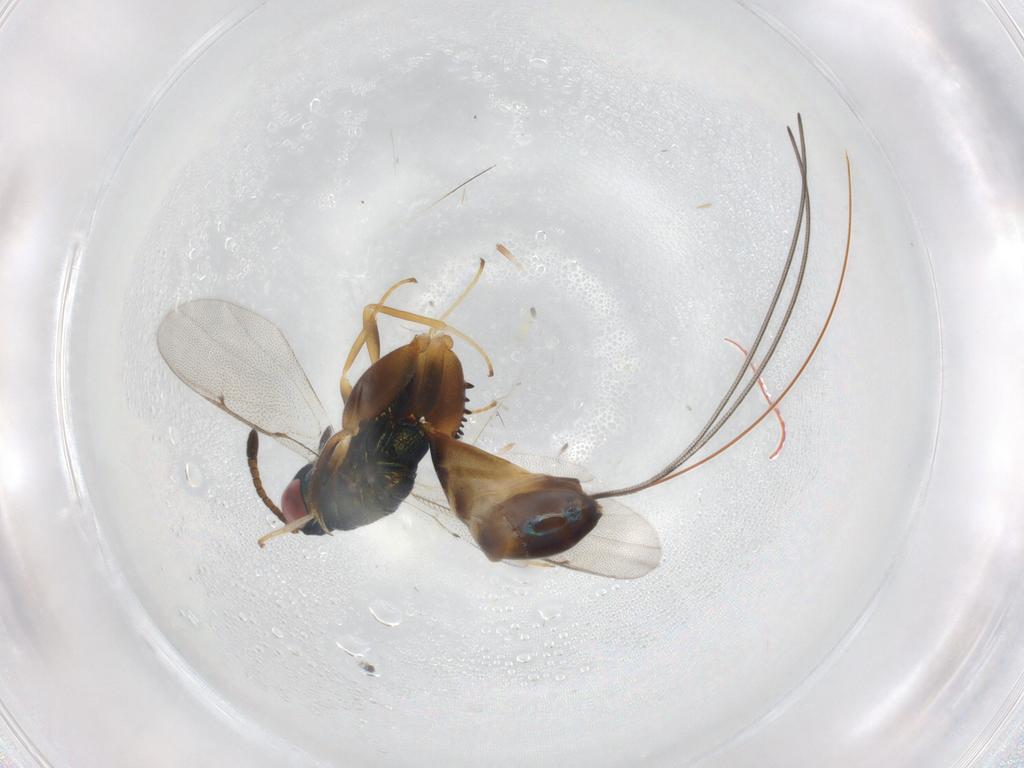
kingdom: Animalia
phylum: Arthropoda
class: Insecta
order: Hymenoptera
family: Torymidae
